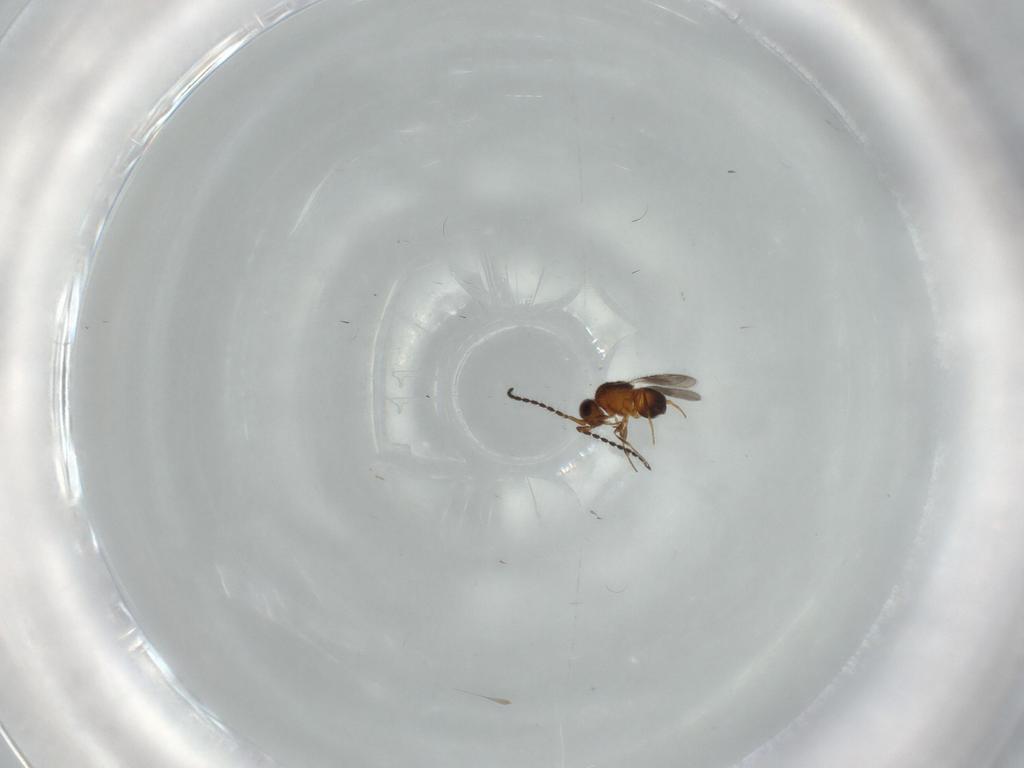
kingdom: Animalia
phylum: Arthropoda
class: Insecta
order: Hymenoptera
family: Ceraphronidae
